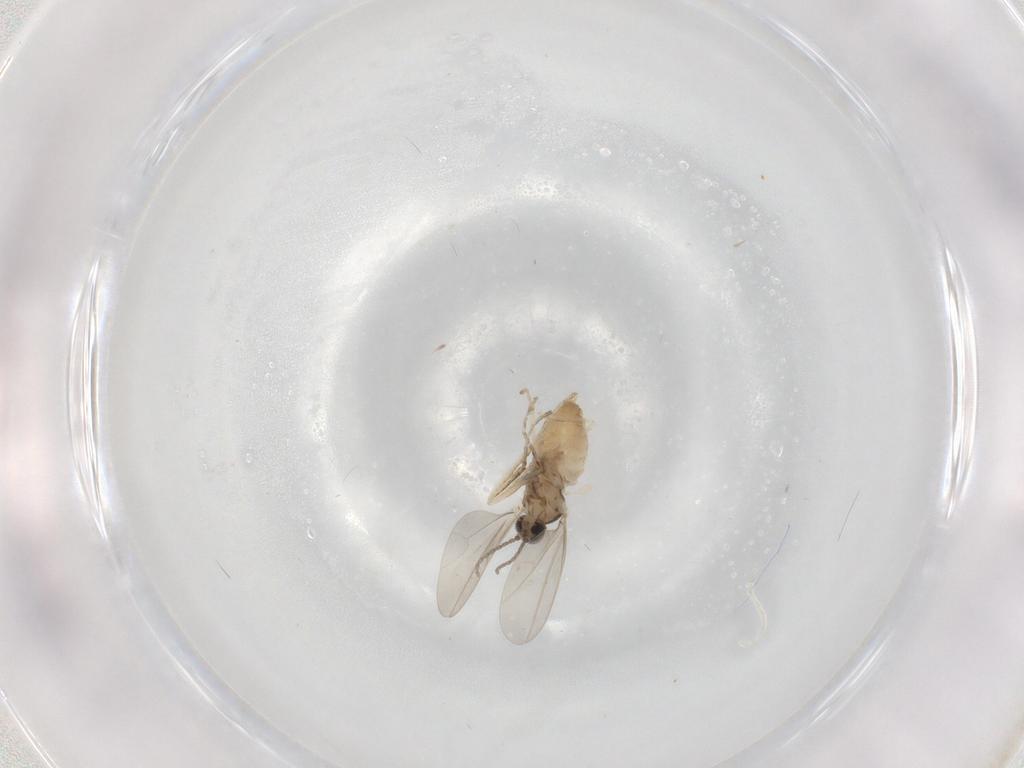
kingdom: Animalia
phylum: Arthropoda
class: Insecta
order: Diptera
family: Cecidomyiidae
